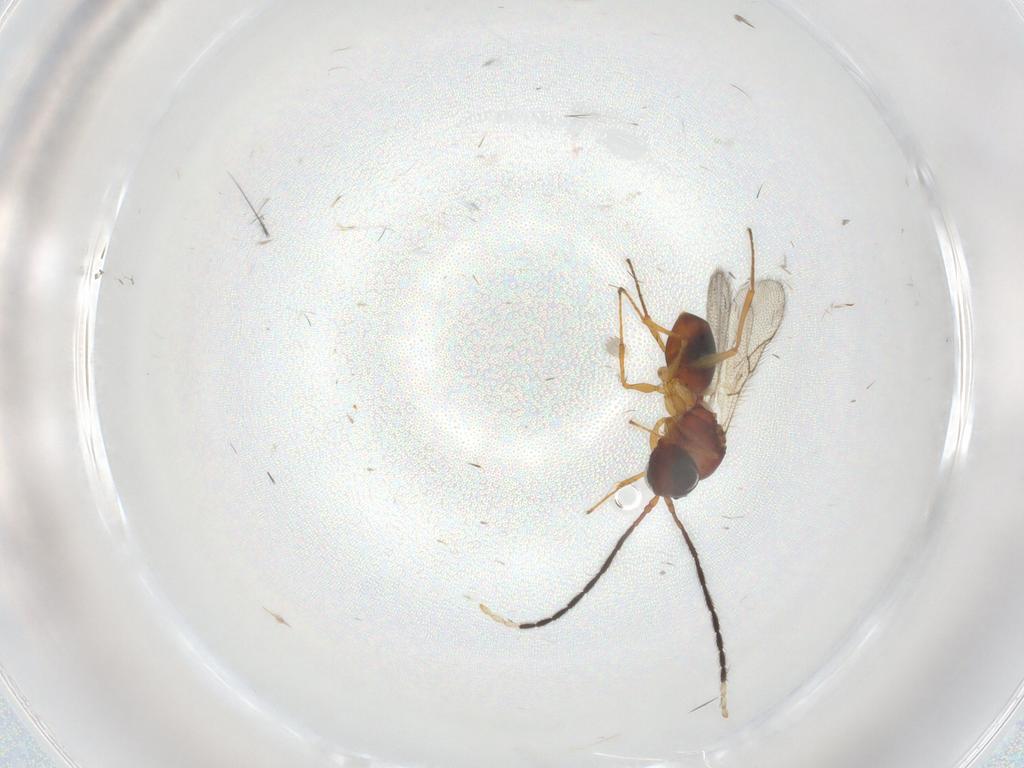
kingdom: Animalia
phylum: Arthropoda
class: Insecta
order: Hymenoptera
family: Figitidae
